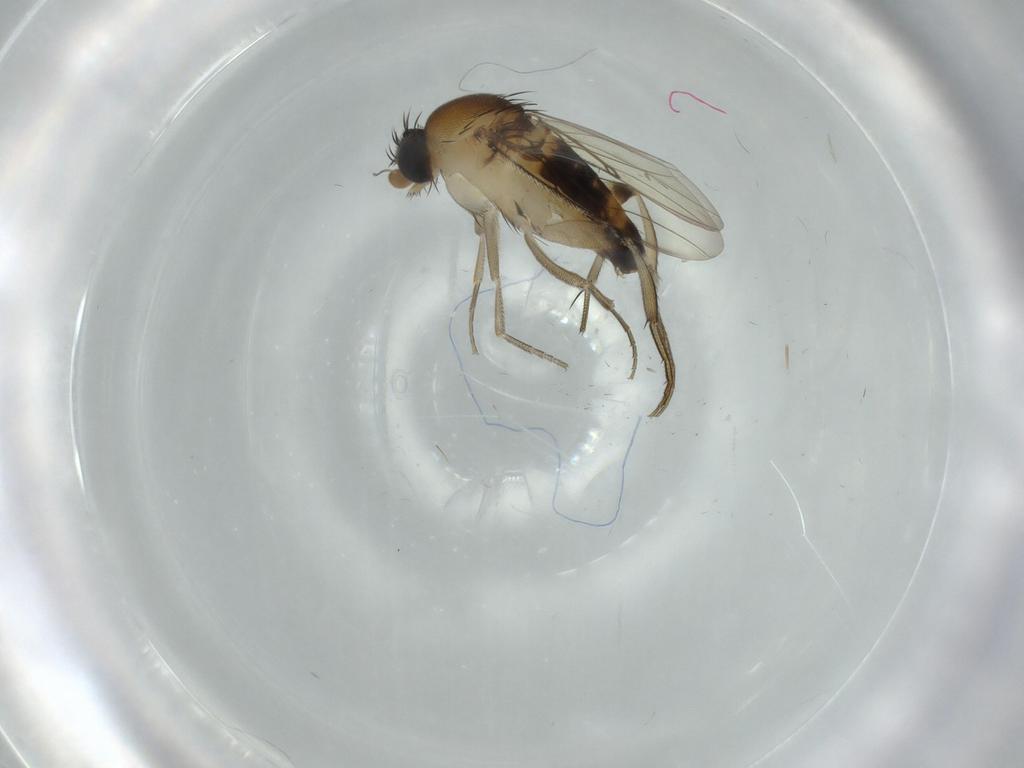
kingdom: Animalia
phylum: Arthropoda
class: Insecta
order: Diptera
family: Phoridae
